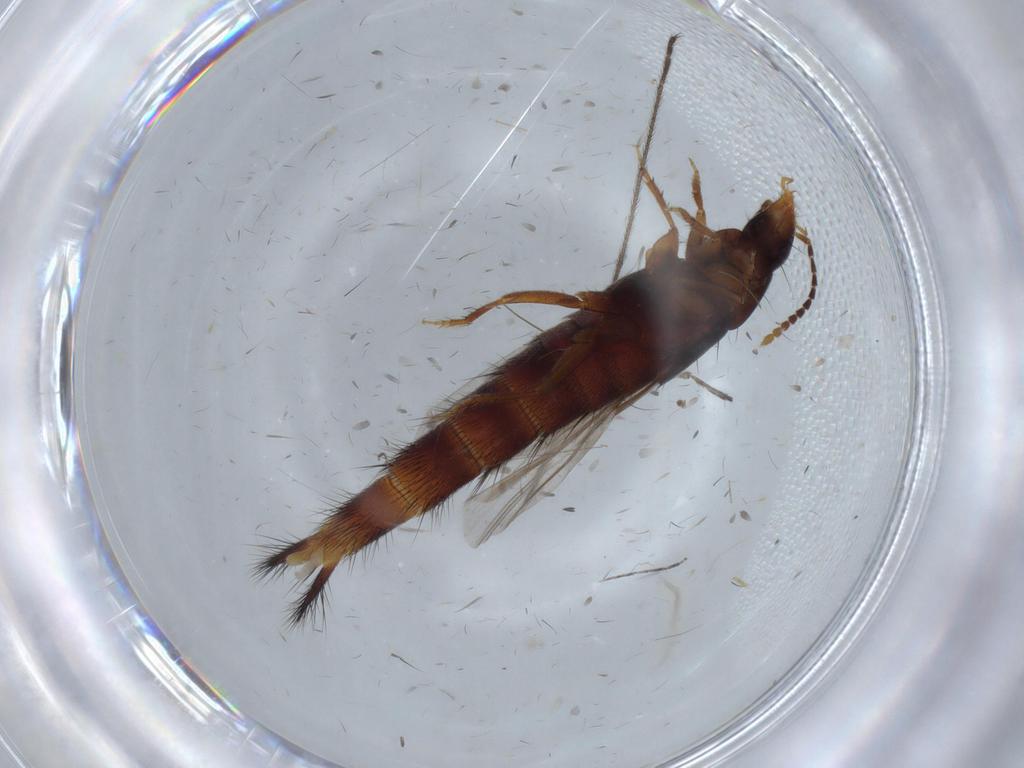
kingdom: Animalia
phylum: Arthropoda
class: Insecta
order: Coleoptera
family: Staphylinidae
